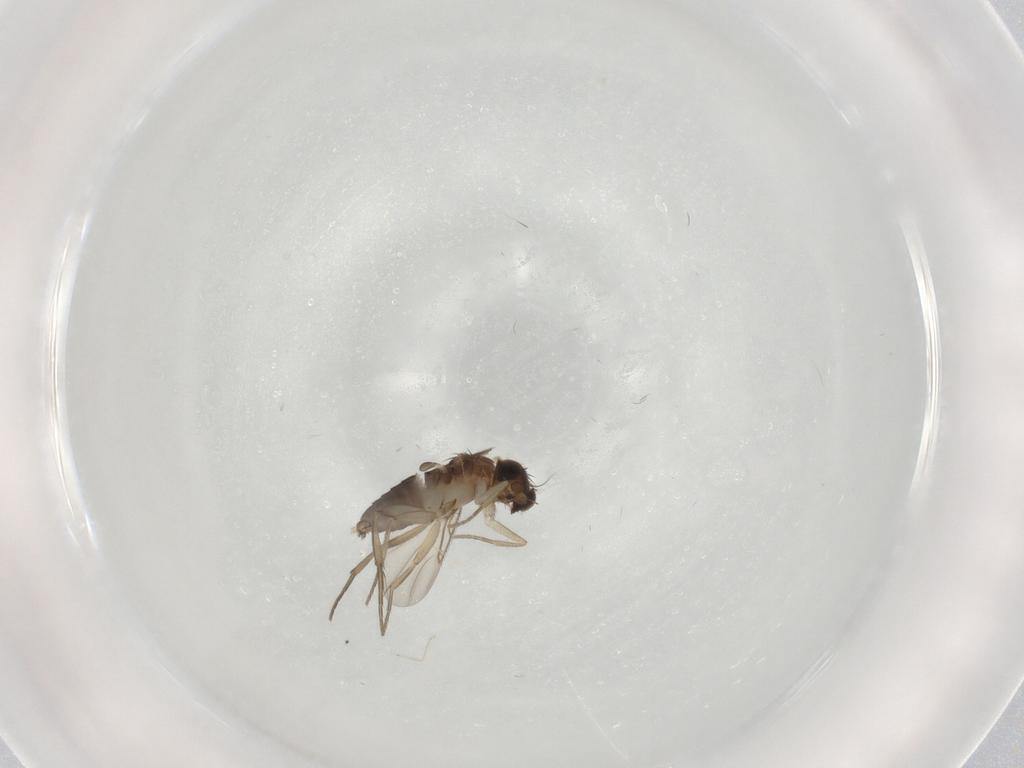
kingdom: Animalia
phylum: Arthropoda
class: Insecta
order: Diptera
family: Phoridae
